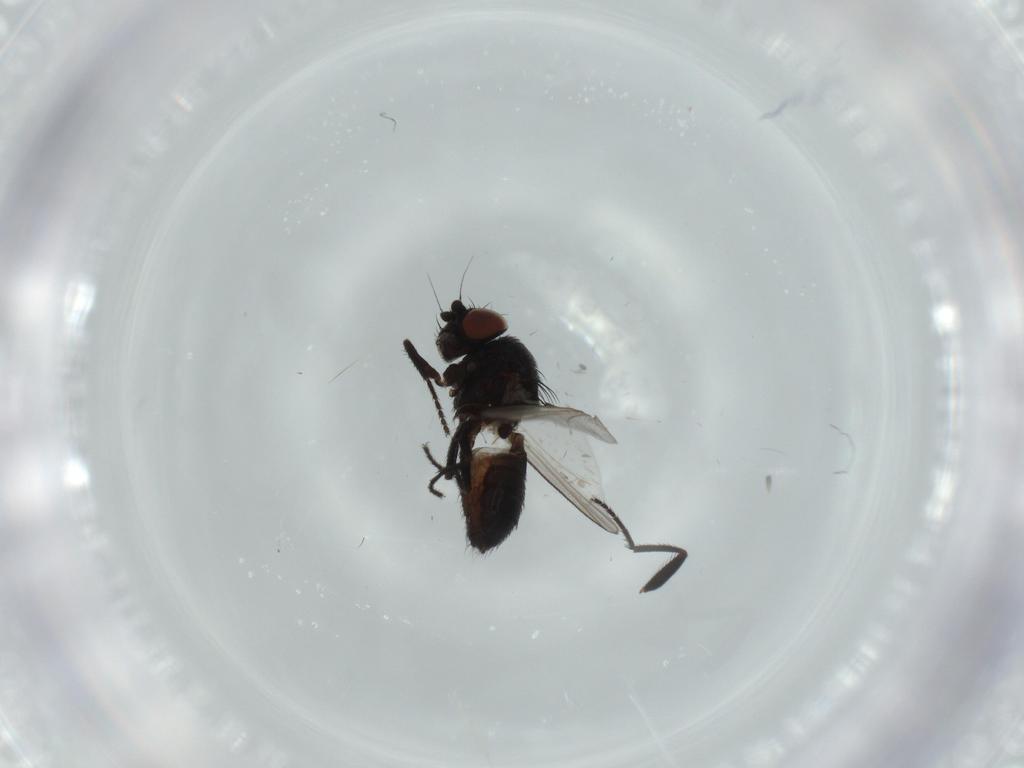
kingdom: Animalia
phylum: Arthropoda
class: Insecta
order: Diptera
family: Milichiidae
